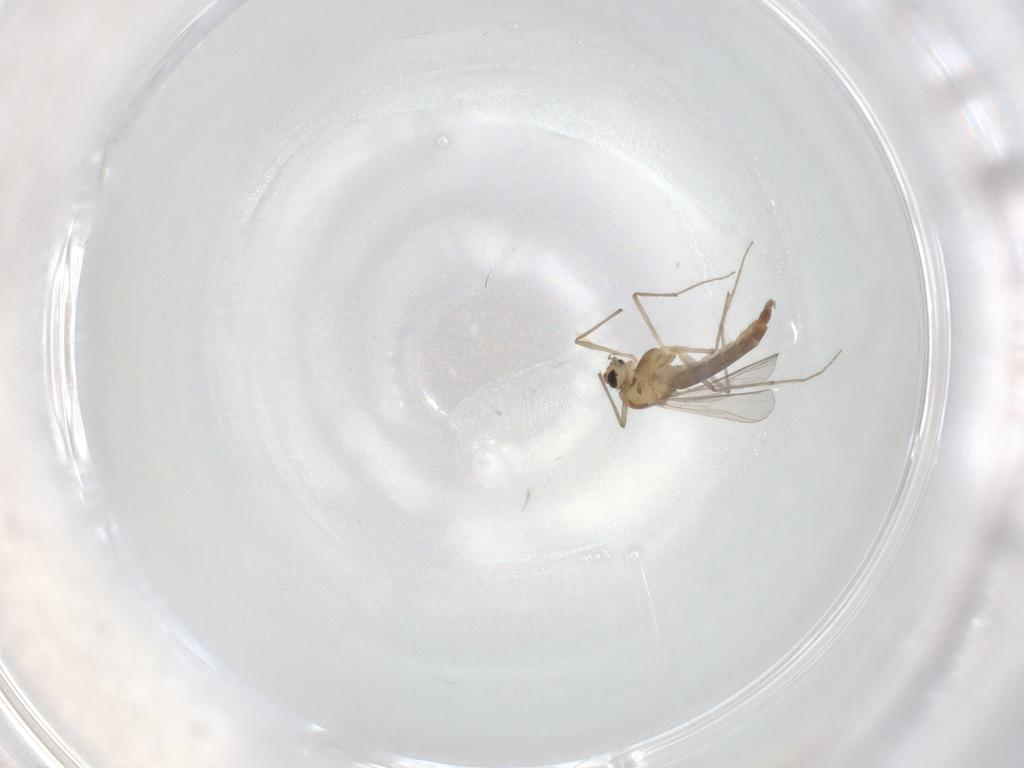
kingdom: Animalia
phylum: Arthropoda
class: Insecta
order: Diptera
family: Chironomidae
